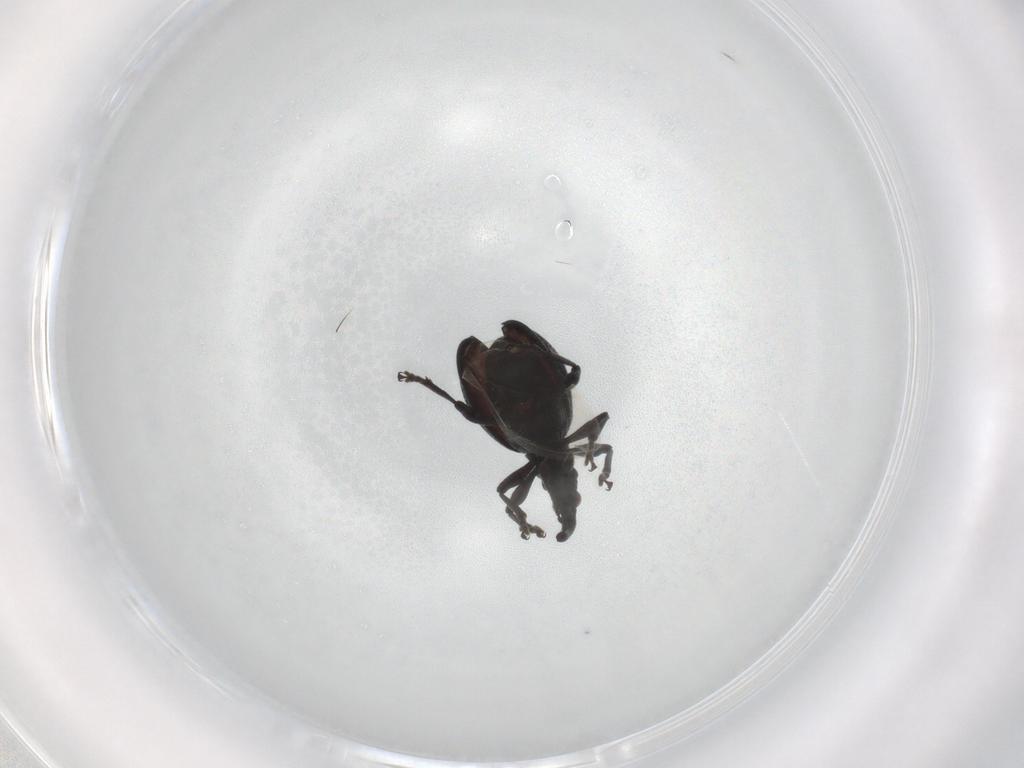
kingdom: Animalia
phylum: Arthropoda
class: Insecta
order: Coleoptera
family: Brentidae
